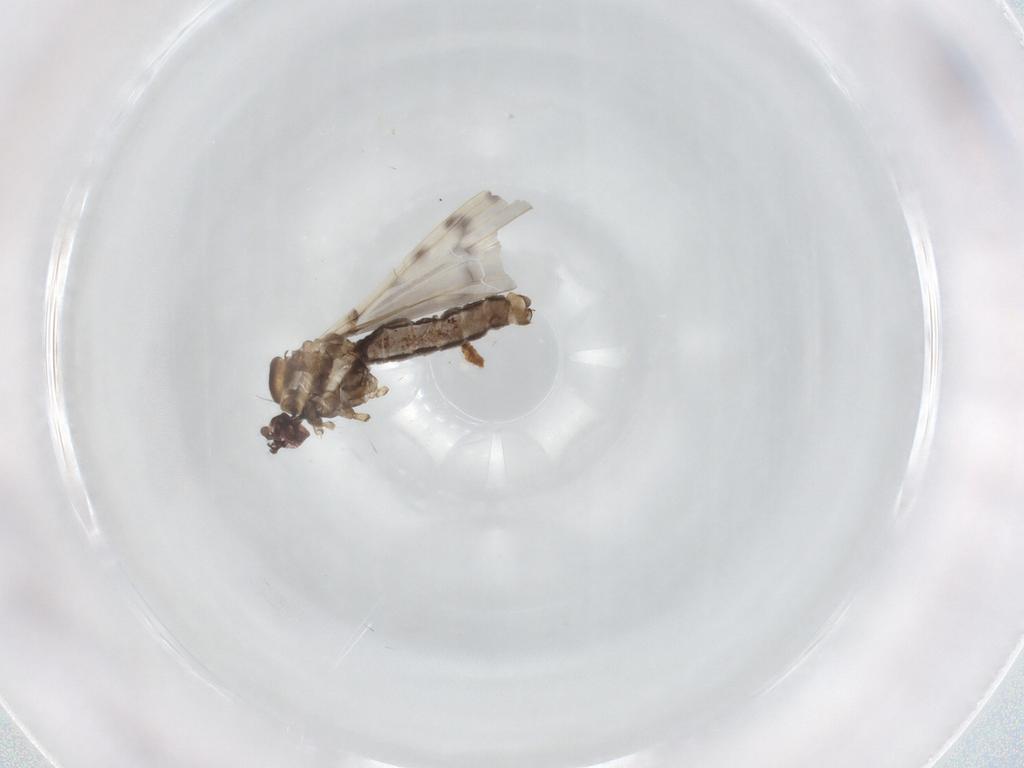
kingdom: Animalia
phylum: Arthropoda
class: Insecta
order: Diptera
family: Limoniidae
